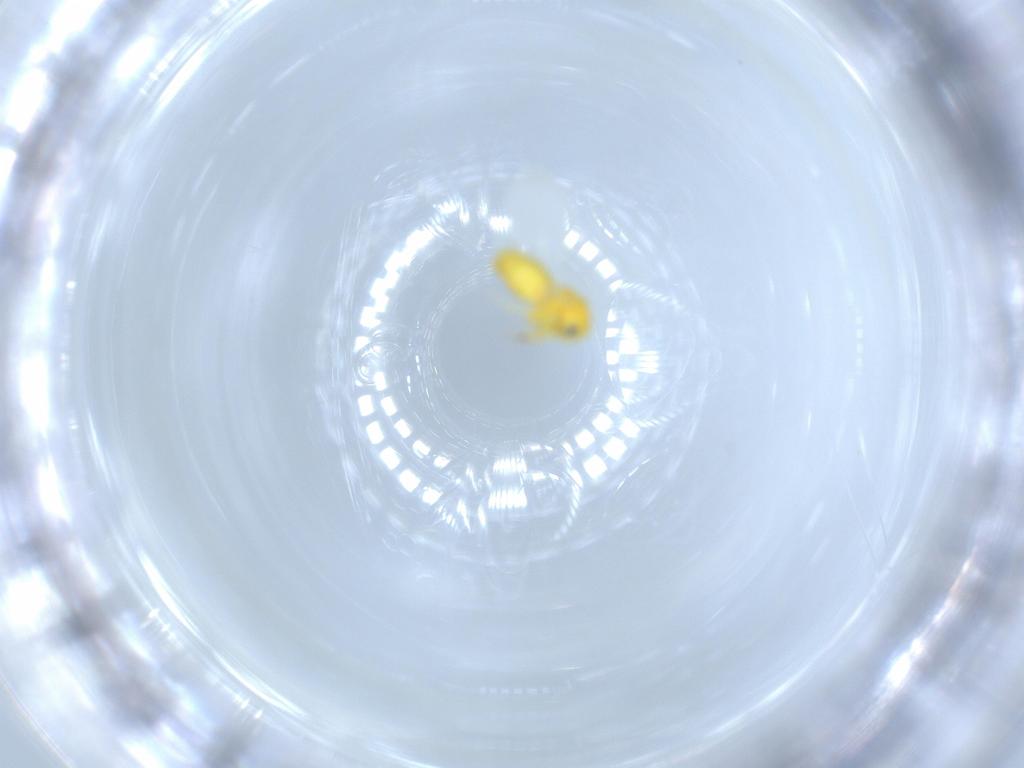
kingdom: Animalia
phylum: Arthropoda
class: Insecta
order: Hemiptera
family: Aleyrodidae
